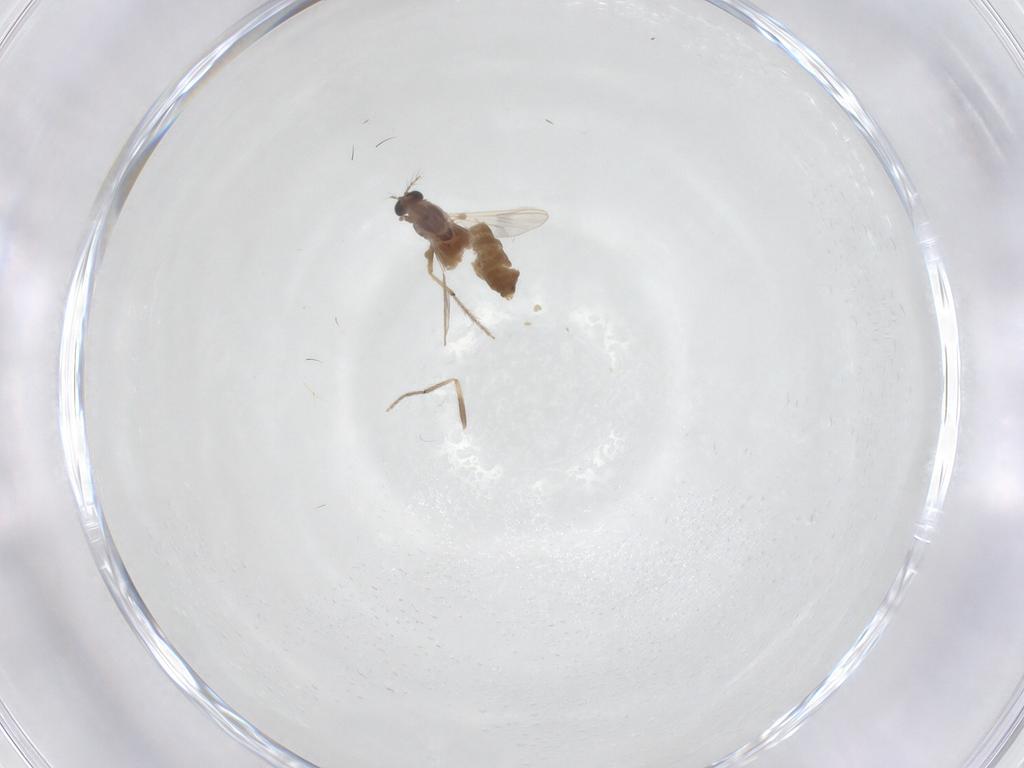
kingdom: Animalia
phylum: Arthropoda
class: Insecta
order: Diptera
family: Chironomidae
